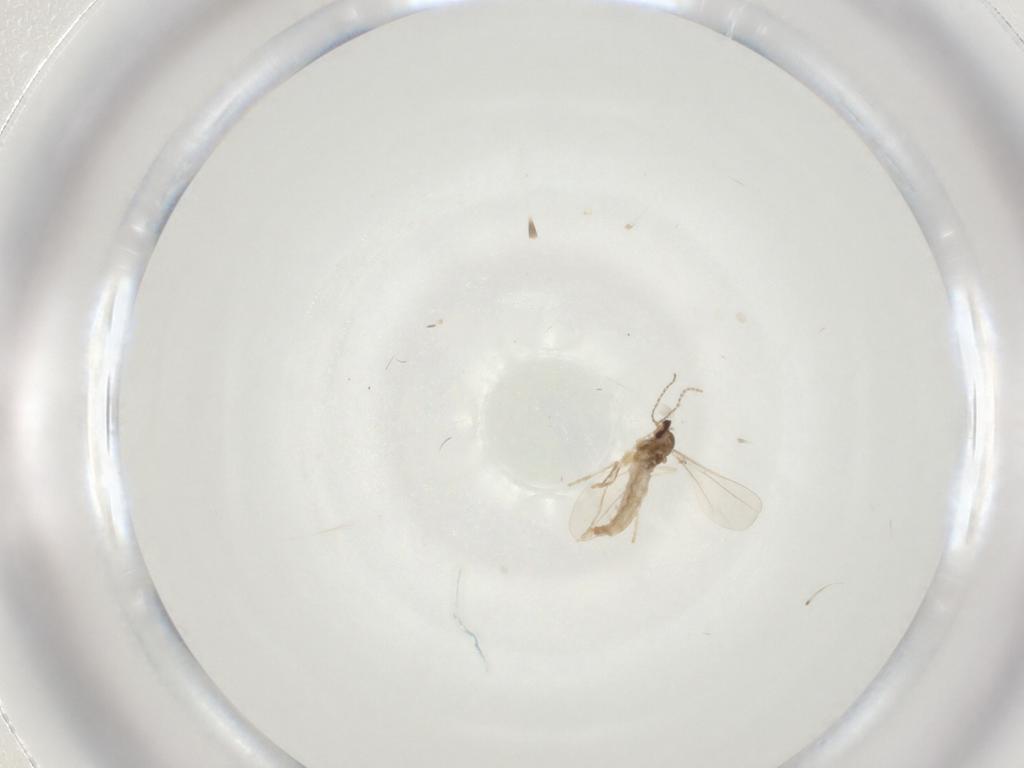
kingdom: Animalia
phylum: Arthropoda
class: Insecta
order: Diptera
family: Cecidomyiidae
